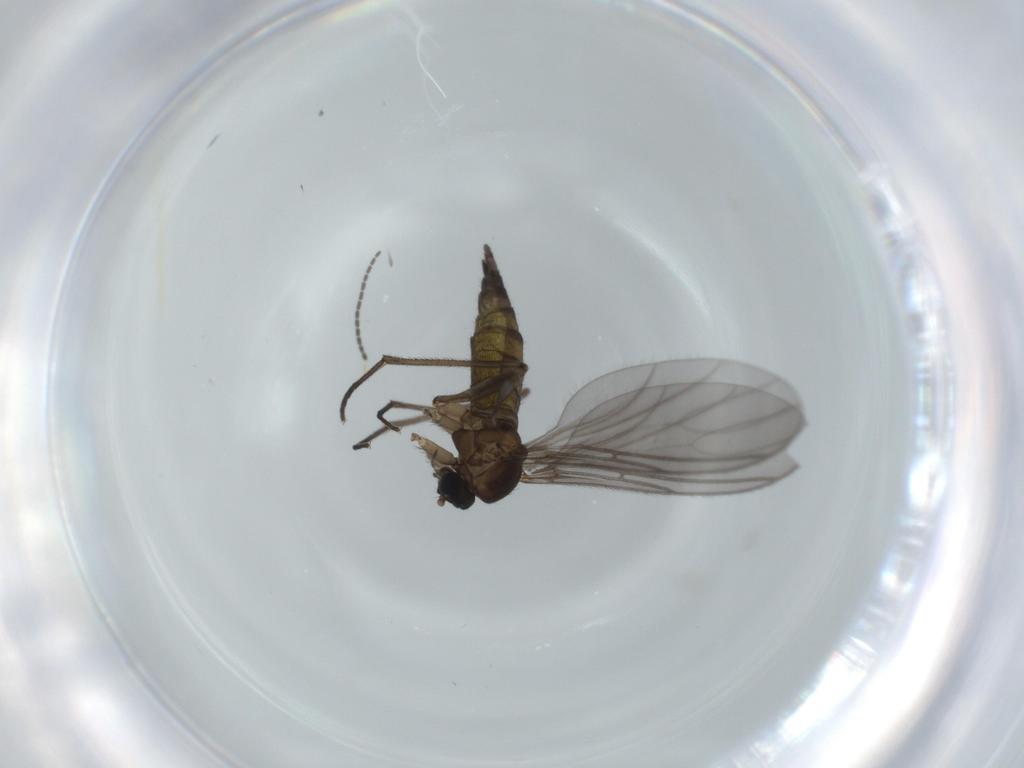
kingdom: Animalia
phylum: Arthropoda
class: Insecta
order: Diptera
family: Sciaridae
